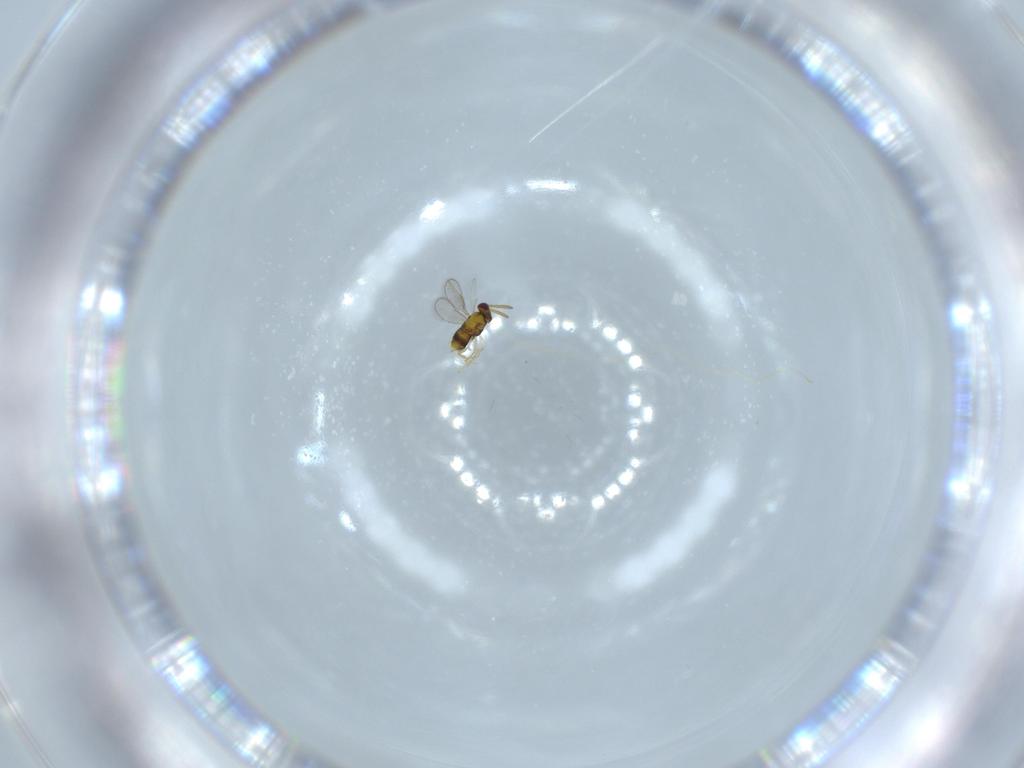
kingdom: Animalia
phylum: Arthropoda
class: Insecta
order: Hymenoptera
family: Aphelinidae
